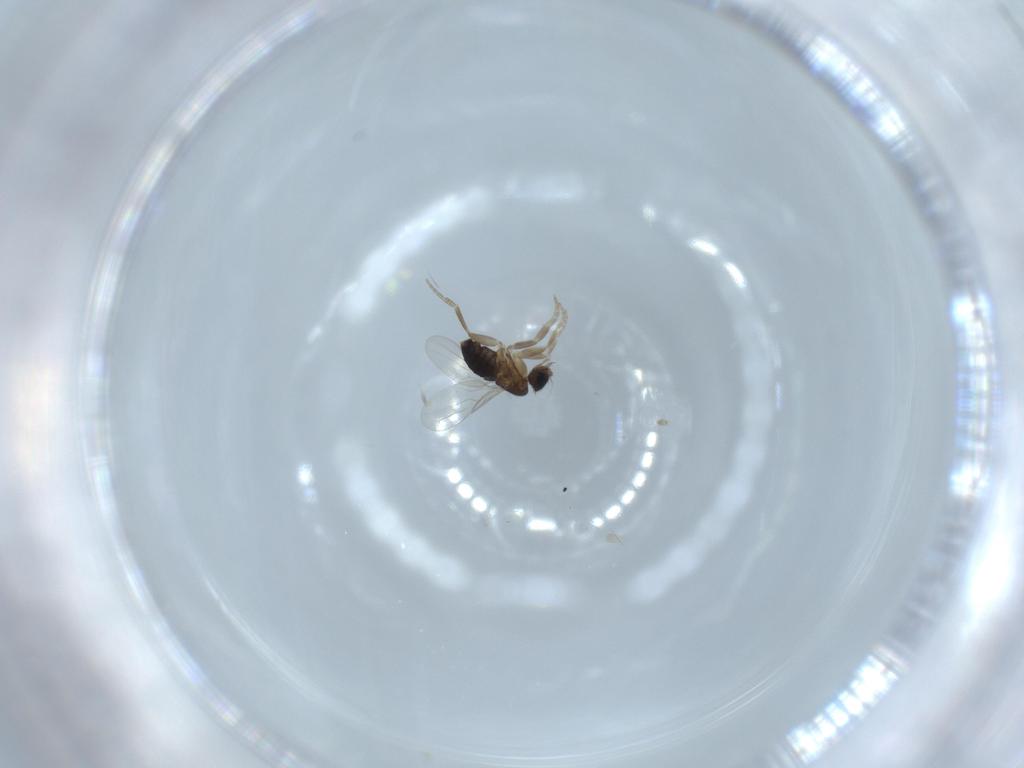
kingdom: Animalia
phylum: Arthropoda
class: Insecta
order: Diptera
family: Phoridae
